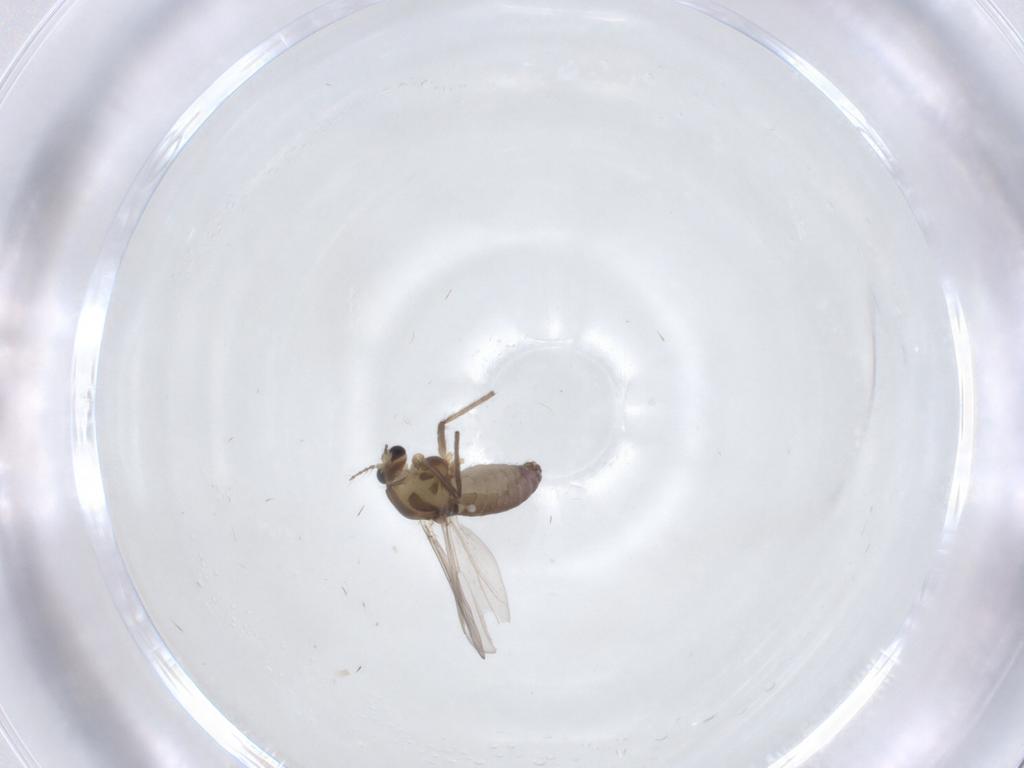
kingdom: Animalia
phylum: Arthropoda
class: Insecta
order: Diptera
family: Chironomidae
